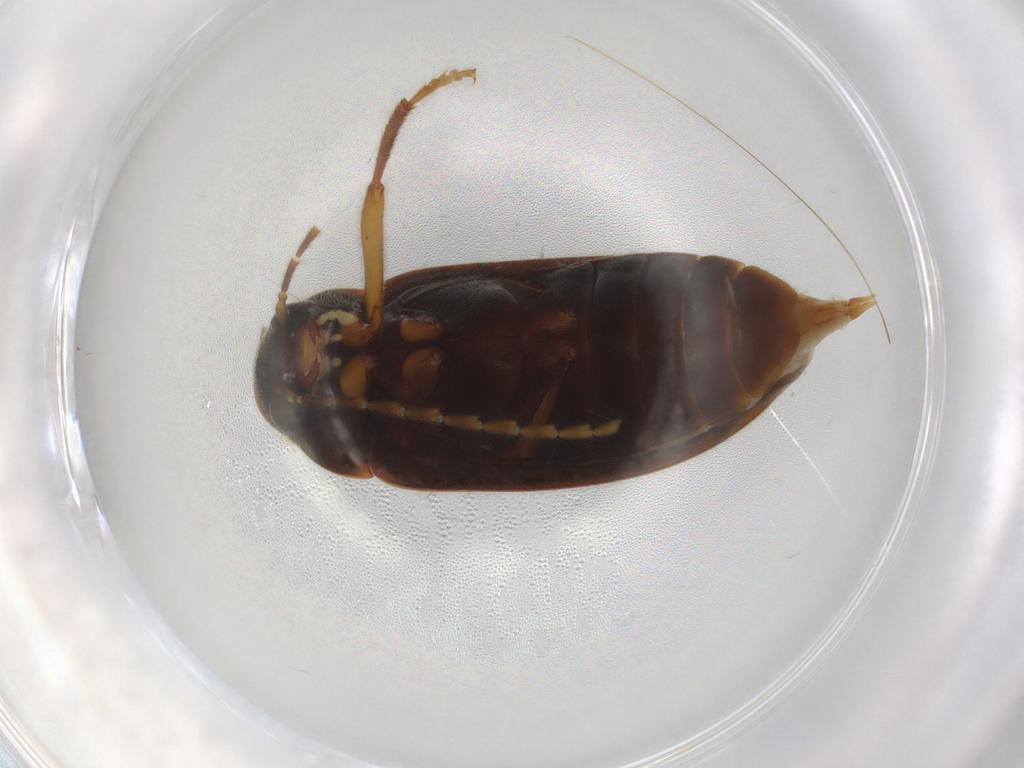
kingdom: Animalia
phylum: Arthropoda
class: Insecta
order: Coleoptera
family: Ptilodactylidae
